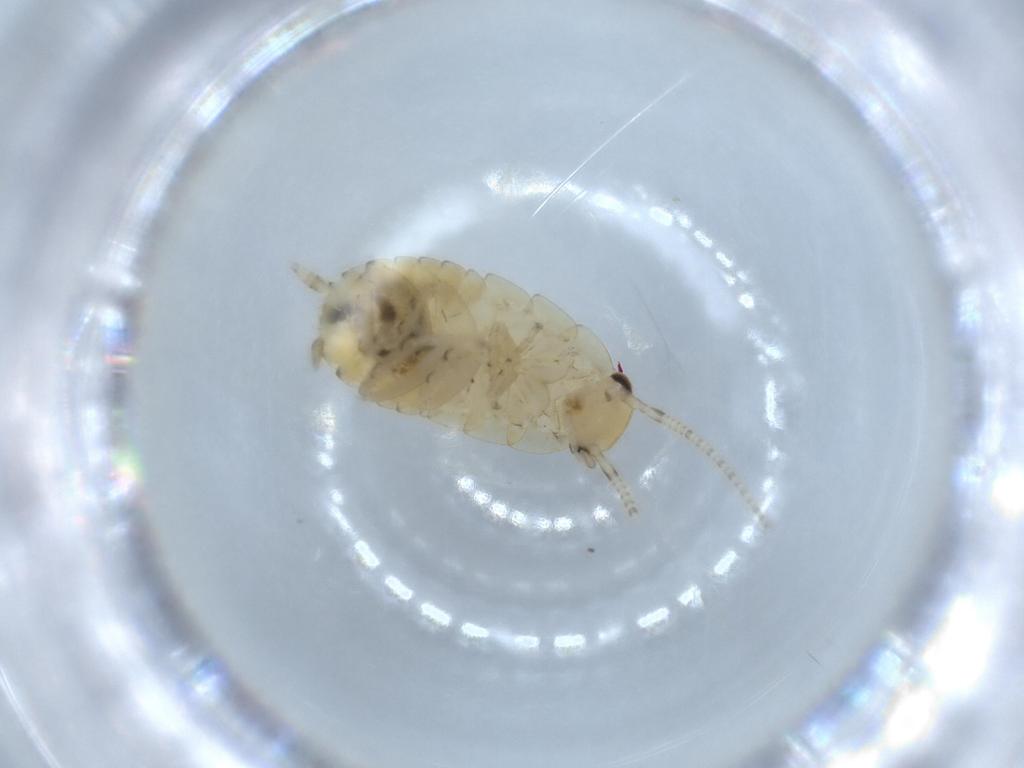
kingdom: Animalia
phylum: Arthropoda
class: Insecta
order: Blattodea
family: Ectobiidae
